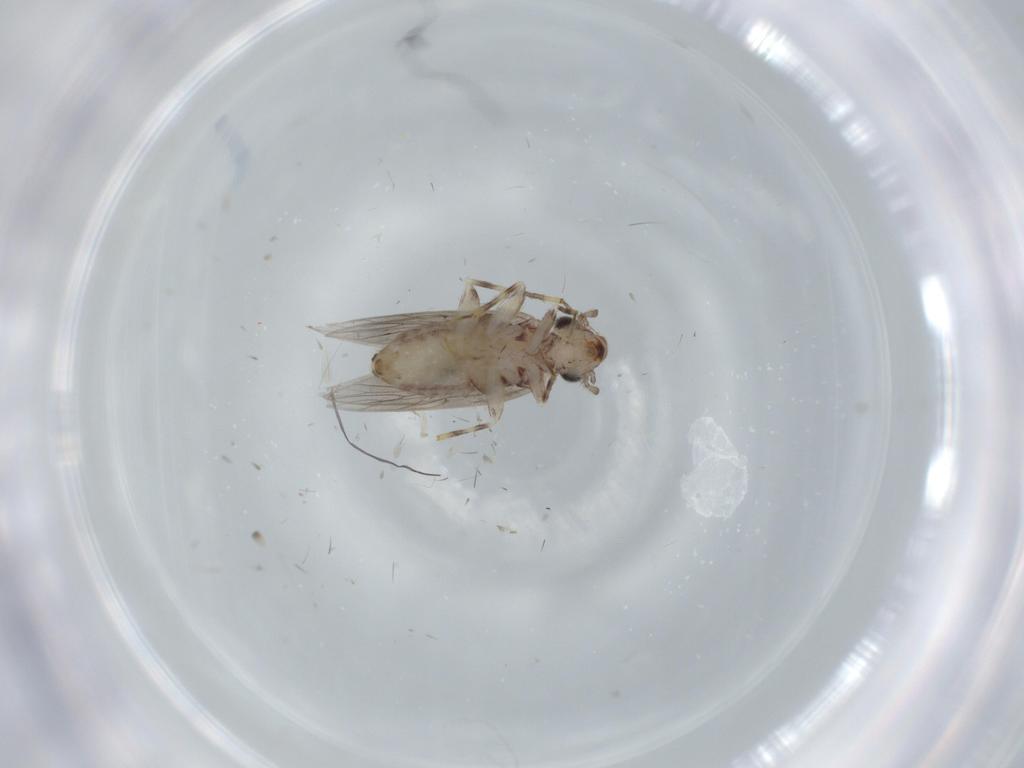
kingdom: Animalia
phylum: Arthropoda
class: Insecta
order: Psocodea
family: Lepidopsocidae
